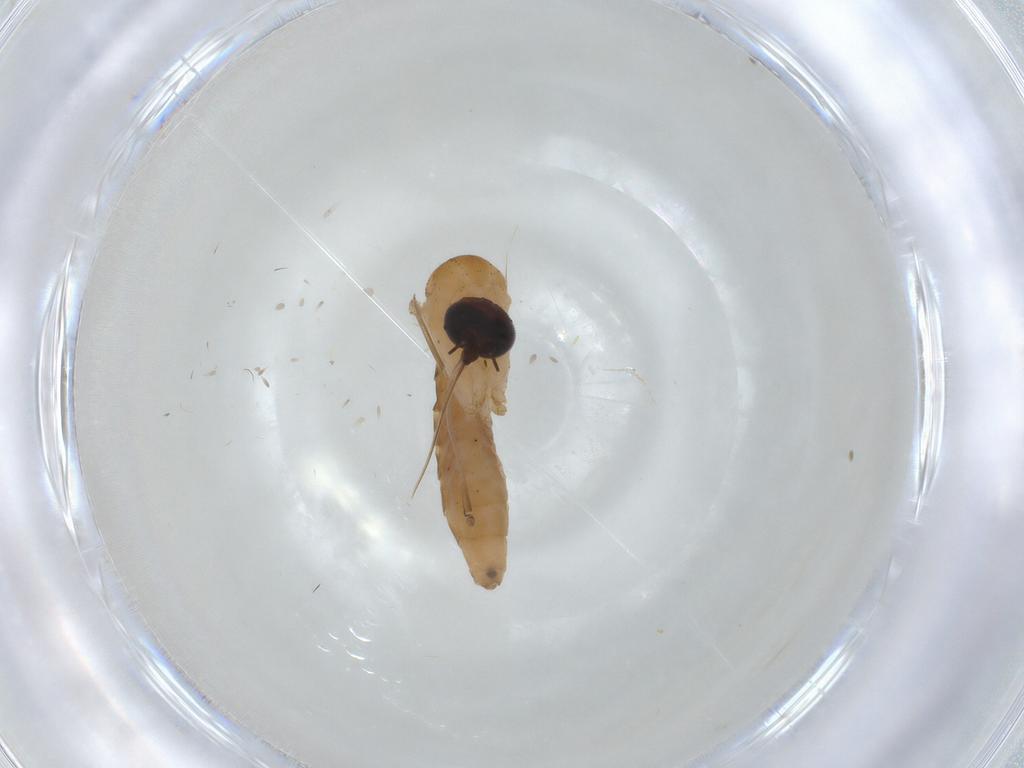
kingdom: Animalia
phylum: Arthropoda
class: Insecta
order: Diptera
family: Culicidae
